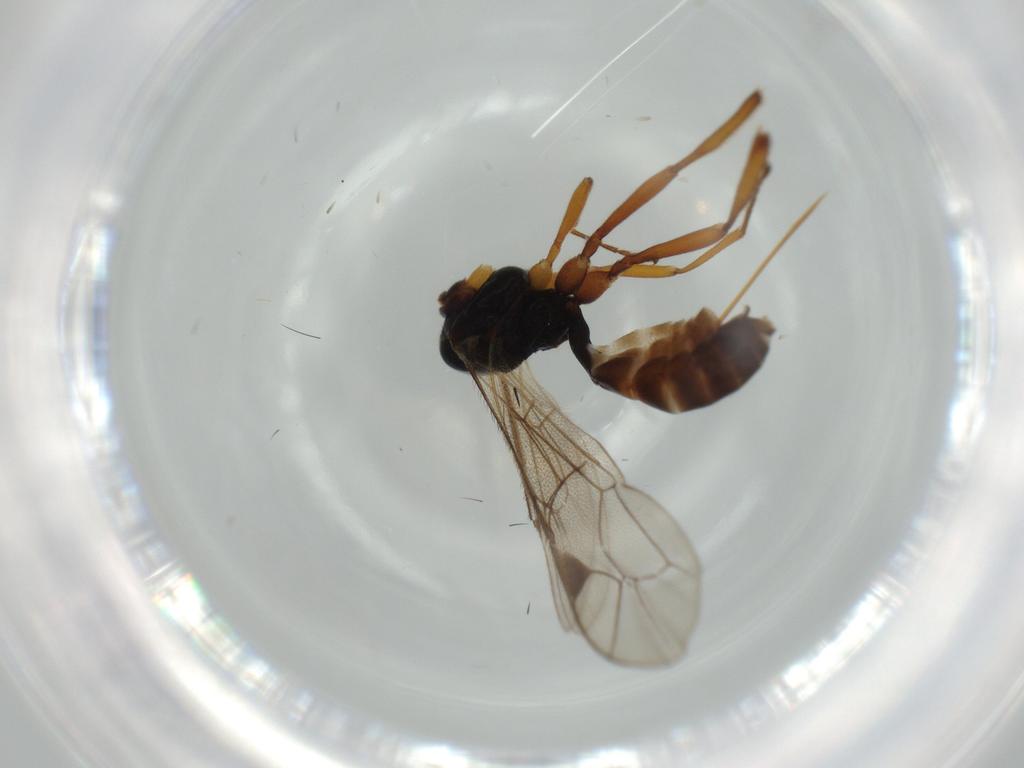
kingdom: Animalia
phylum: Arthropoda
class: Insecta
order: Hymenoptera
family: Ichneumonidae
